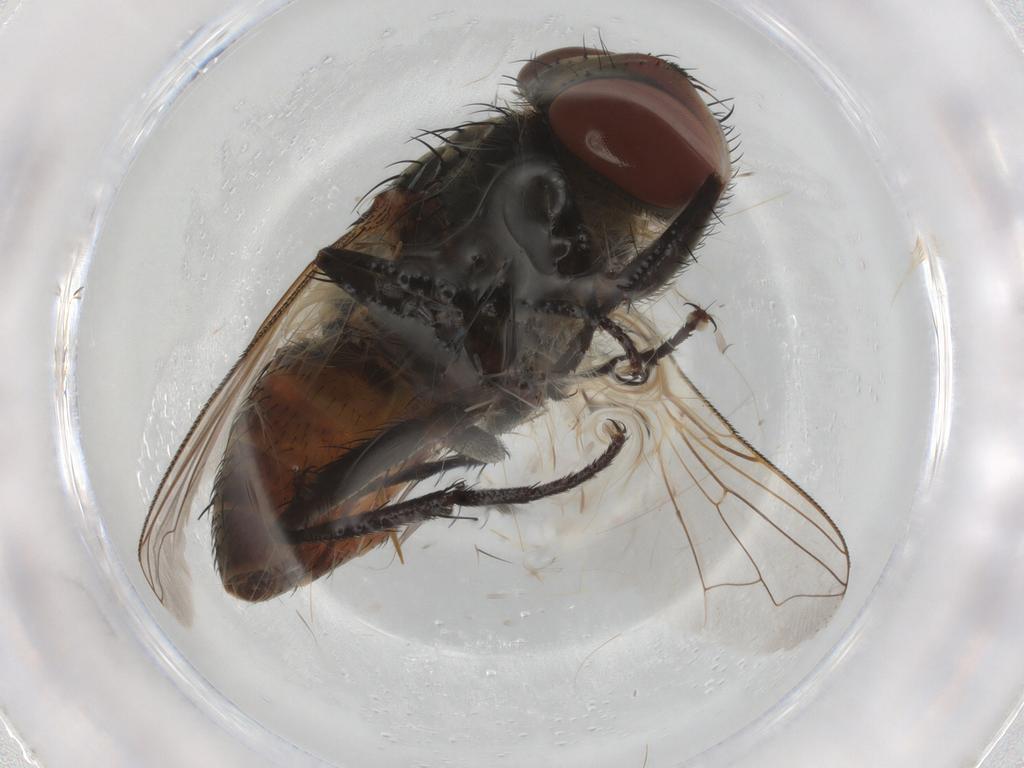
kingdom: Animalia
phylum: Arthropoda
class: Insecta
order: Diptera
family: Sarcophagidae
